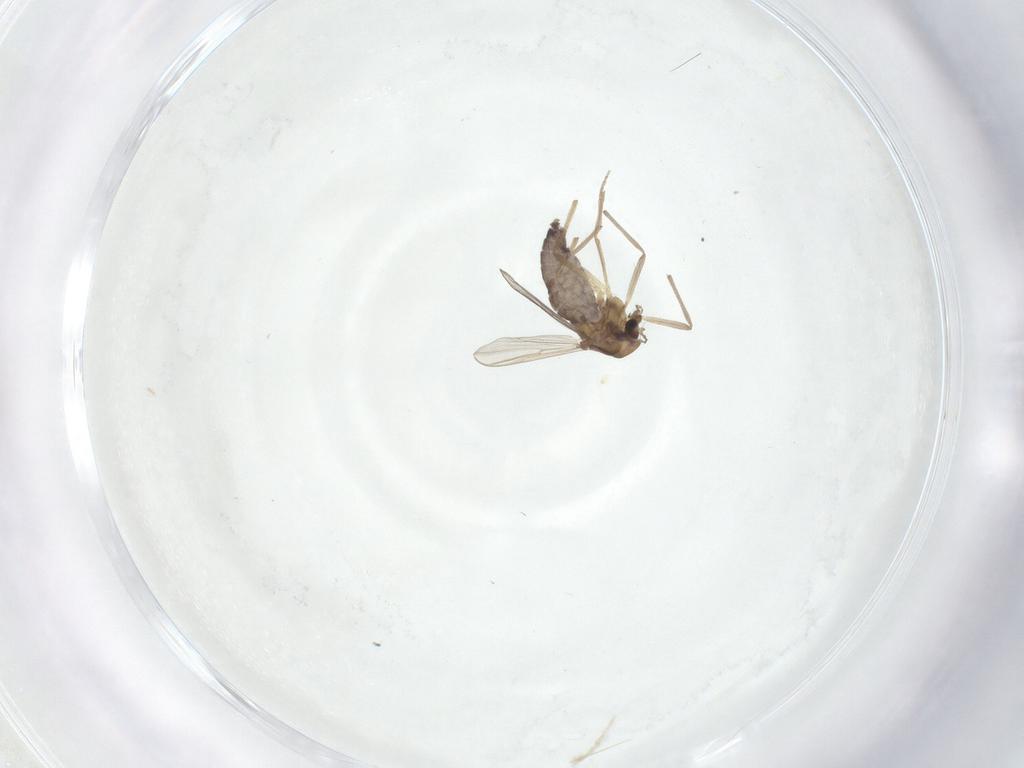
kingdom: Animalia
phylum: Arthropoda
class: Insecta
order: Diptera
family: Chironomidae
